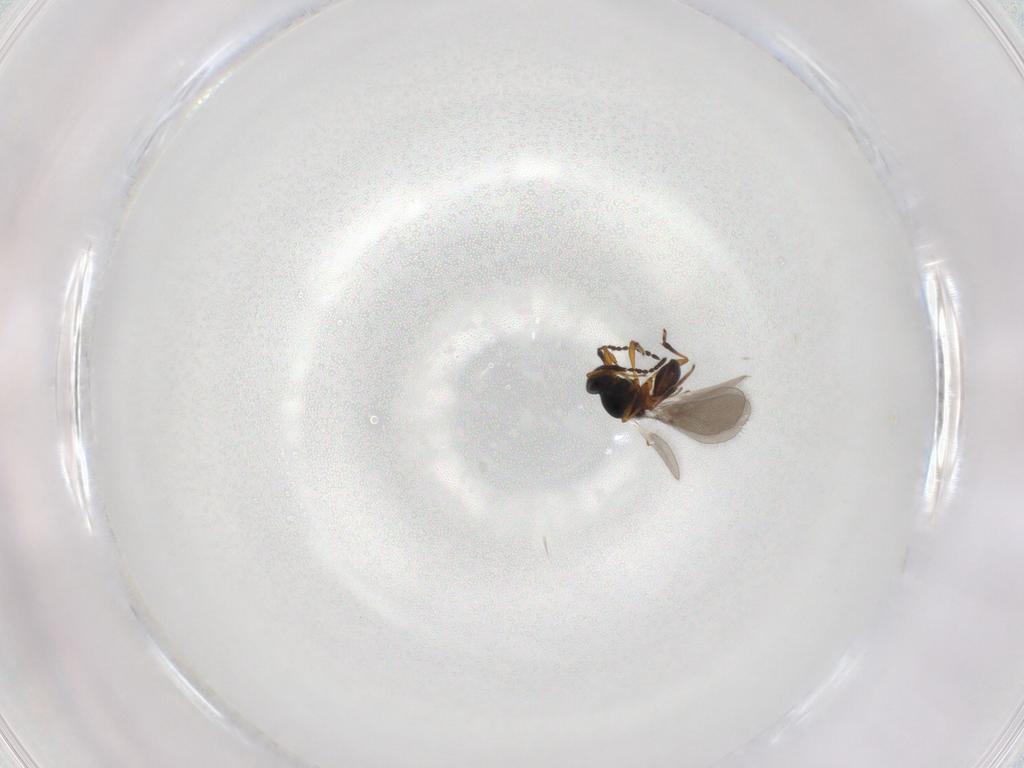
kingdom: Animalia
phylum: Arthropoda
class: Insecta
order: Hymenoptera
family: Platygastridae
